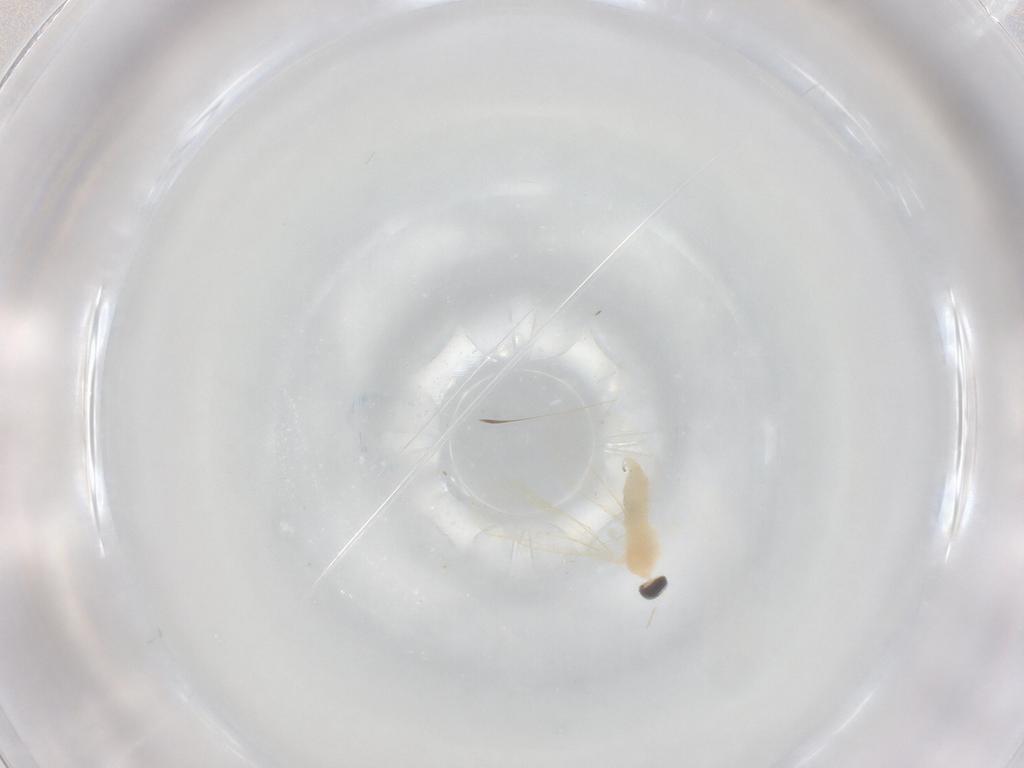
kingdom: Animalia
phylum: Arthropoda
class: Insecta
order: Diptera
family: Cecidomyiidae
